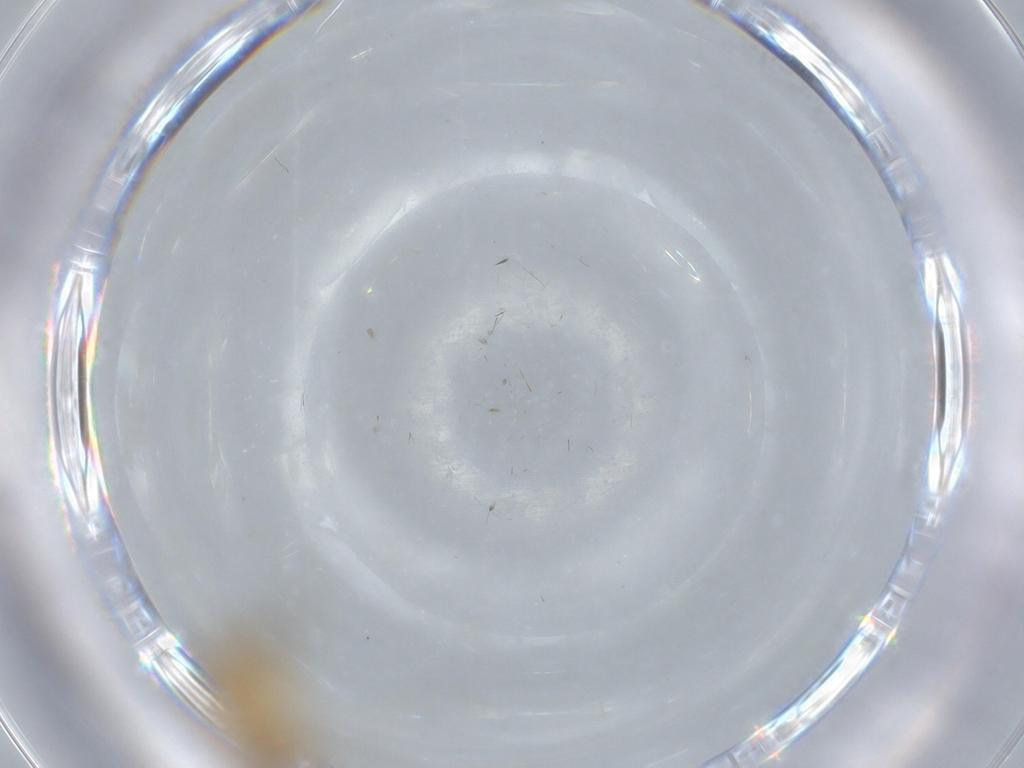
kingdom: Animalia
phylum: Arthropoda
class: Insecta
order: Diptera
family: Chironomidae
